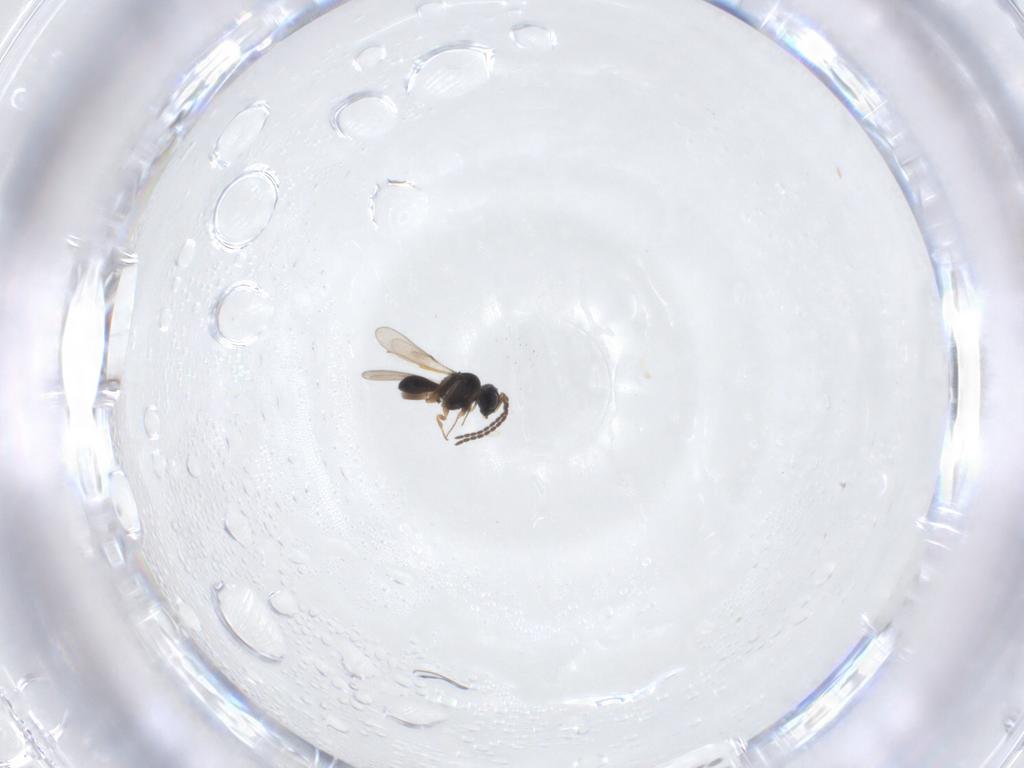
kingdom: Animalia
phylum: Arthropoda
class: Insecta
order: Hymenoptera
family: Scelionidae
